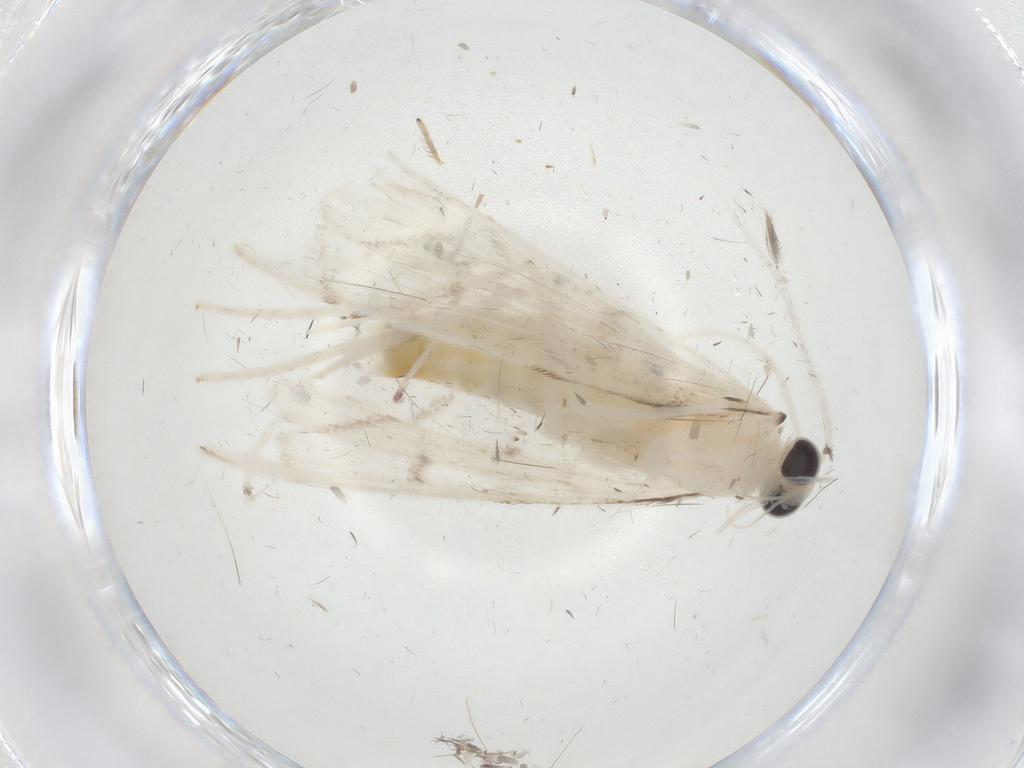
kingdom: Animalia
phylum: Arthropoda
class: Insecta
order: Lepidoptera
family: Crambidae
